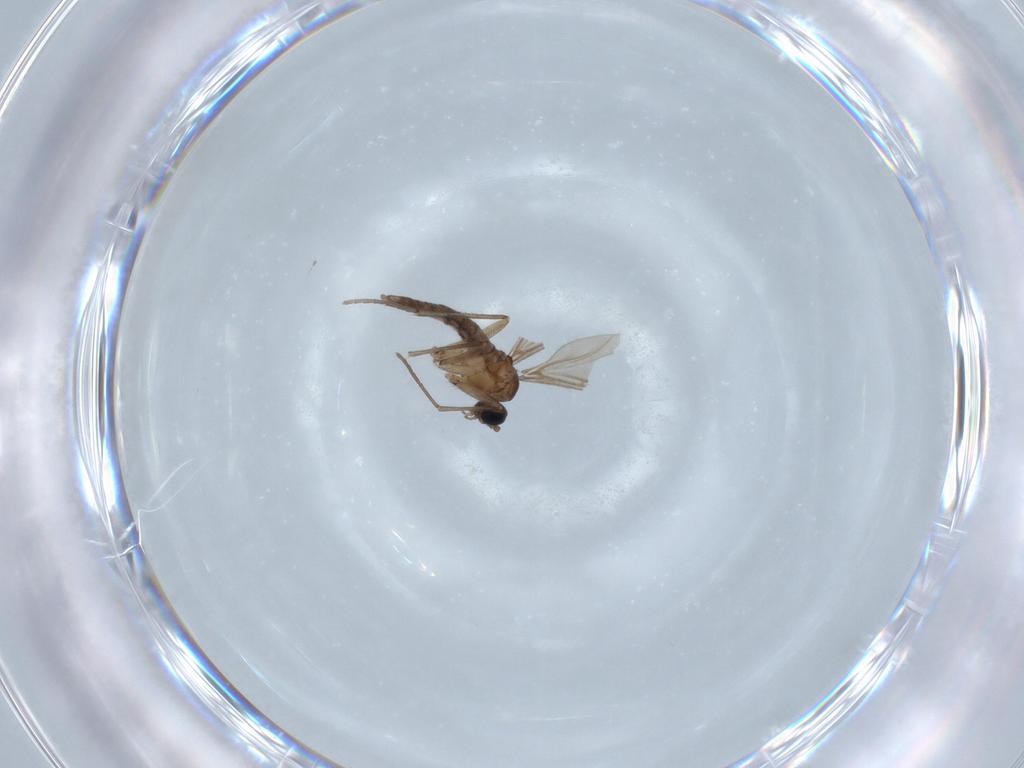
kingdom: Animalia
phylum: Arthropoda
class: Insecta
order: Diptera
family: Sciaridae
